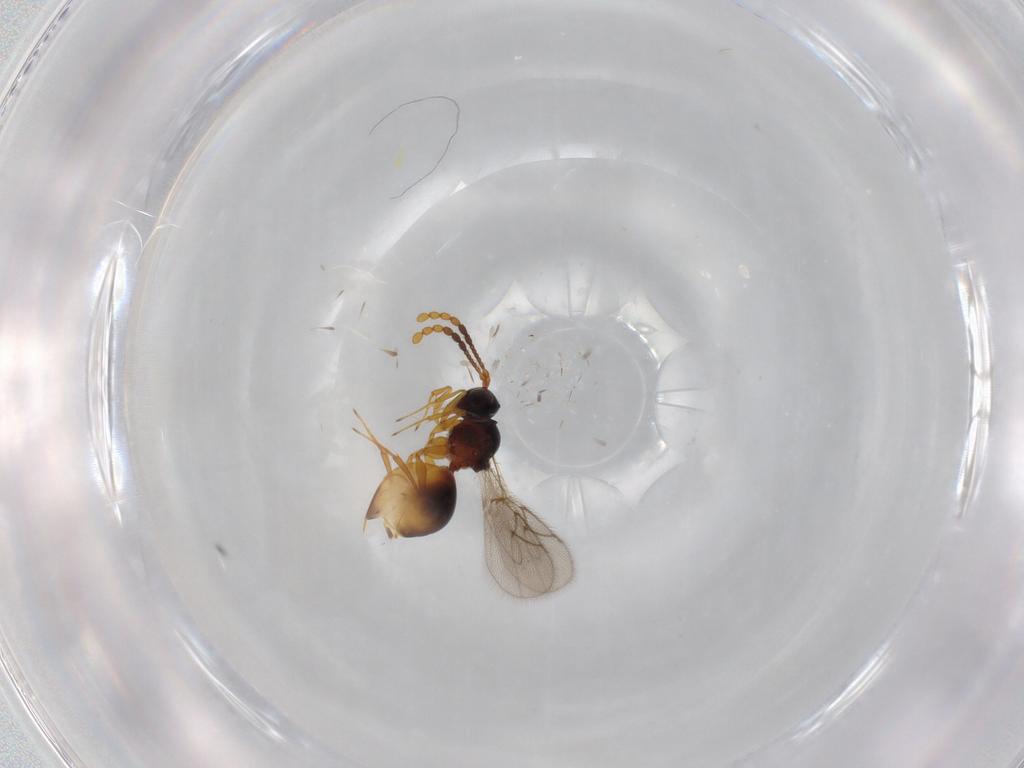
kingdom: Animalia
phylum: Arthropoda
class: Insecta
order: Hymenoptera
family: Figitidae
